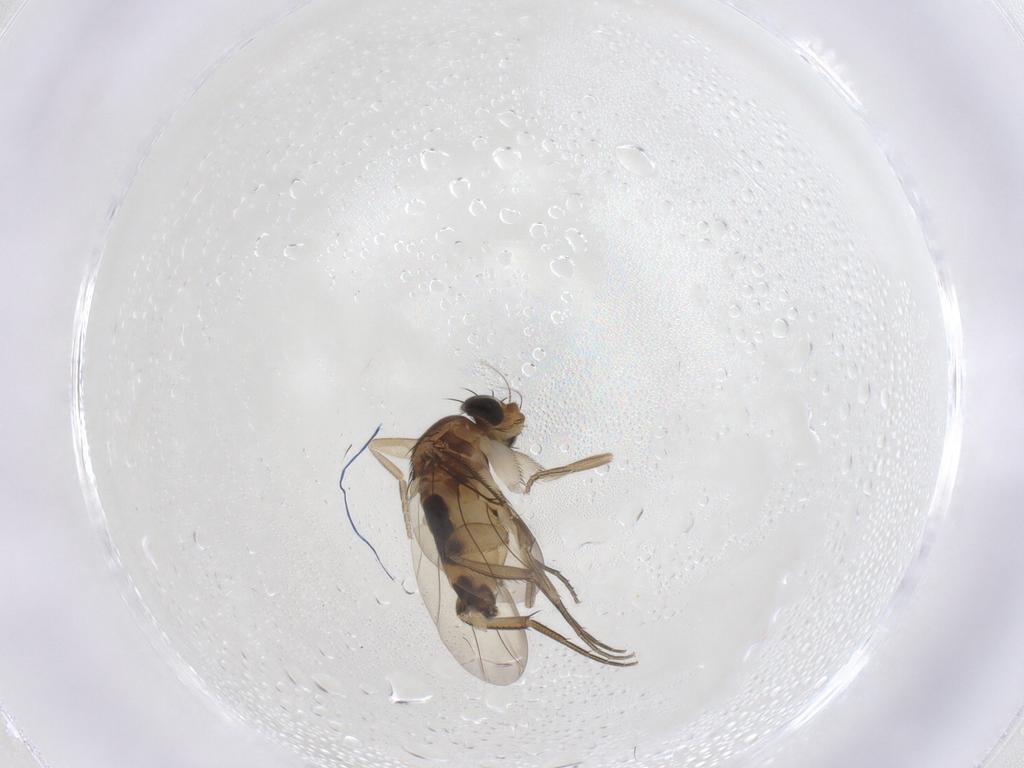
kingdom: Animalia
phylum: Arthropoda
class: Insecta
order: Diptera
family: Phoridae
